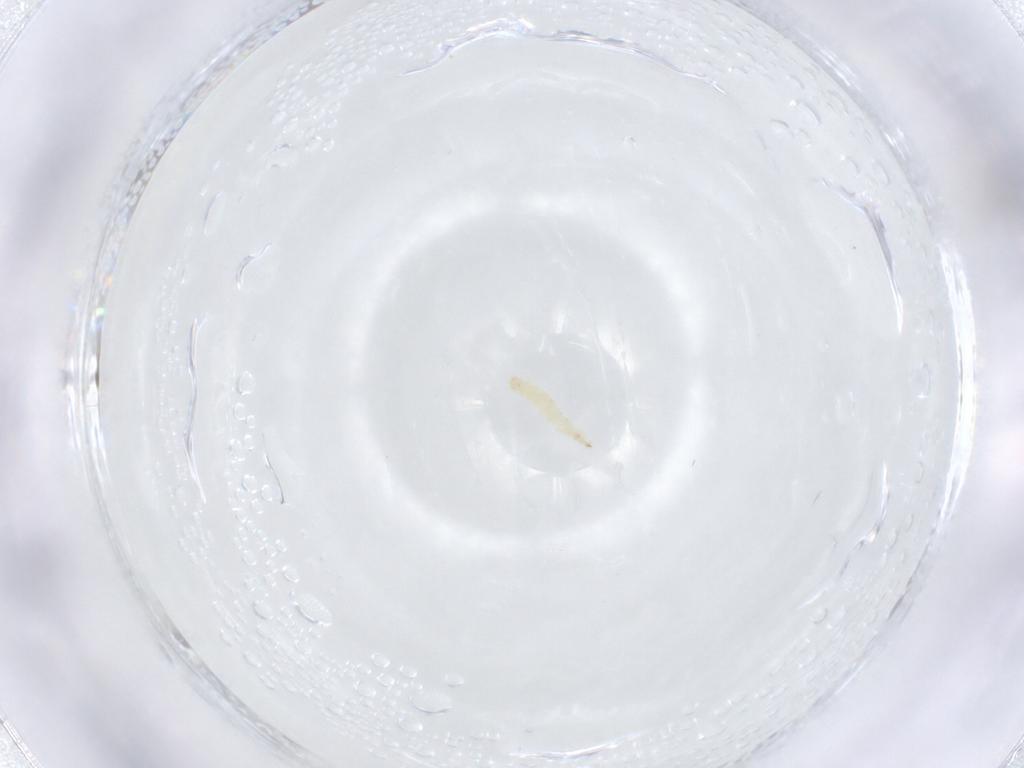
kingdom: Animalia
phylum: Arthropoda
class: Insecta
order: Diptera
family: Sarcophagidae
